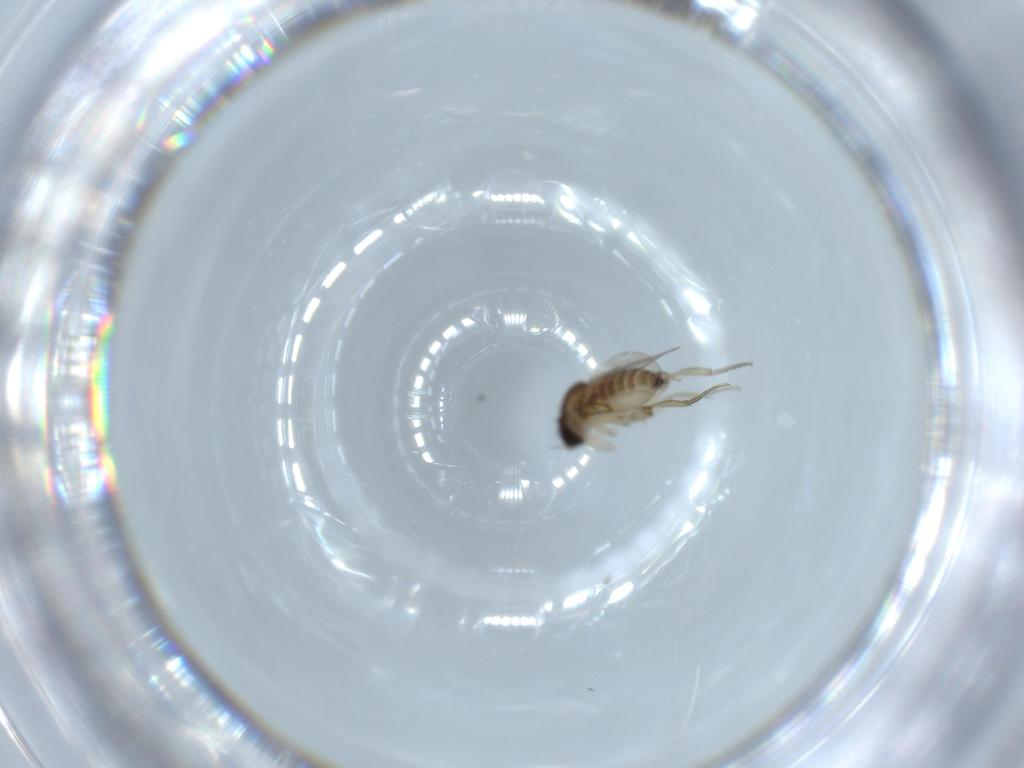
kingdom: Animalia
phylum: Arthropoda
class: Insecta
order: Diptera
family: Phoridae
